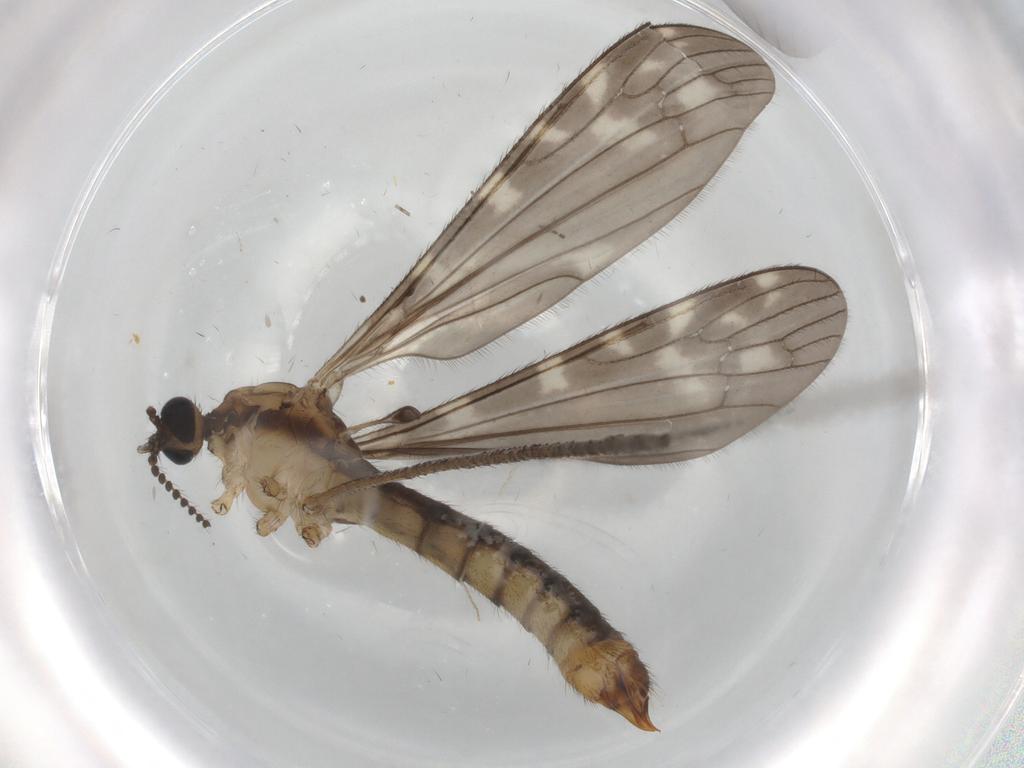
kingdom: Animalia
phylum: Arthropoda
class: Insecta
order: Diptera
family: Limoniidae
